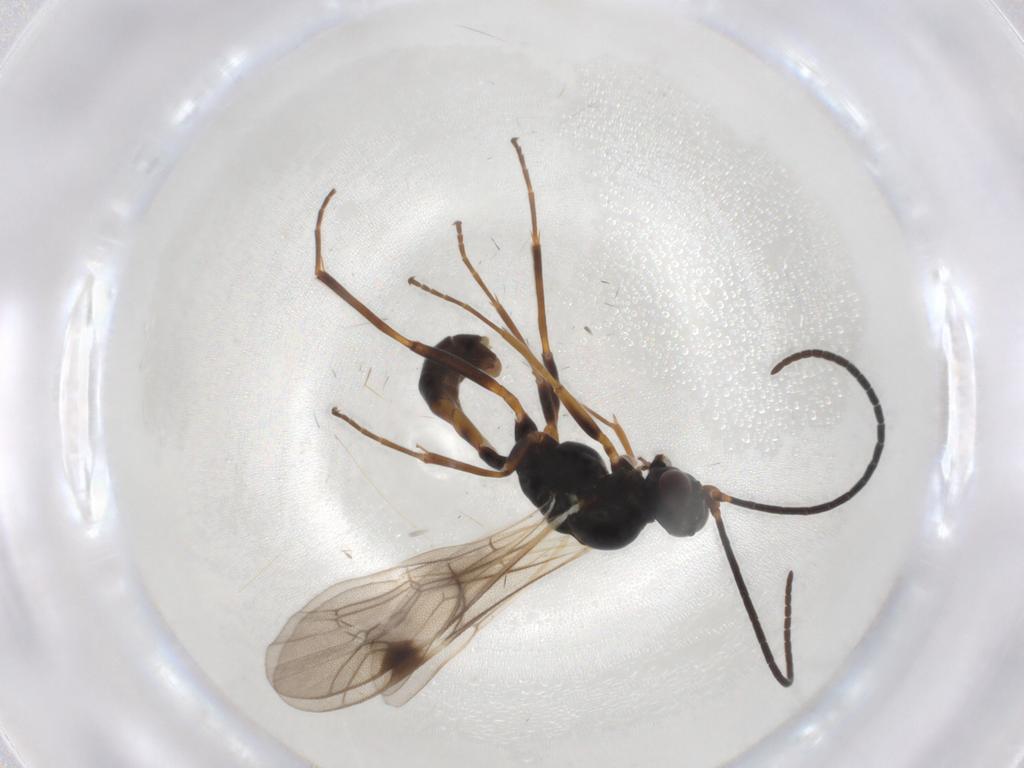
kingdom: Animalia
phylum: Arthropoda
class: Insecta
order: Hymenoptera
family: Ichneumonidae
